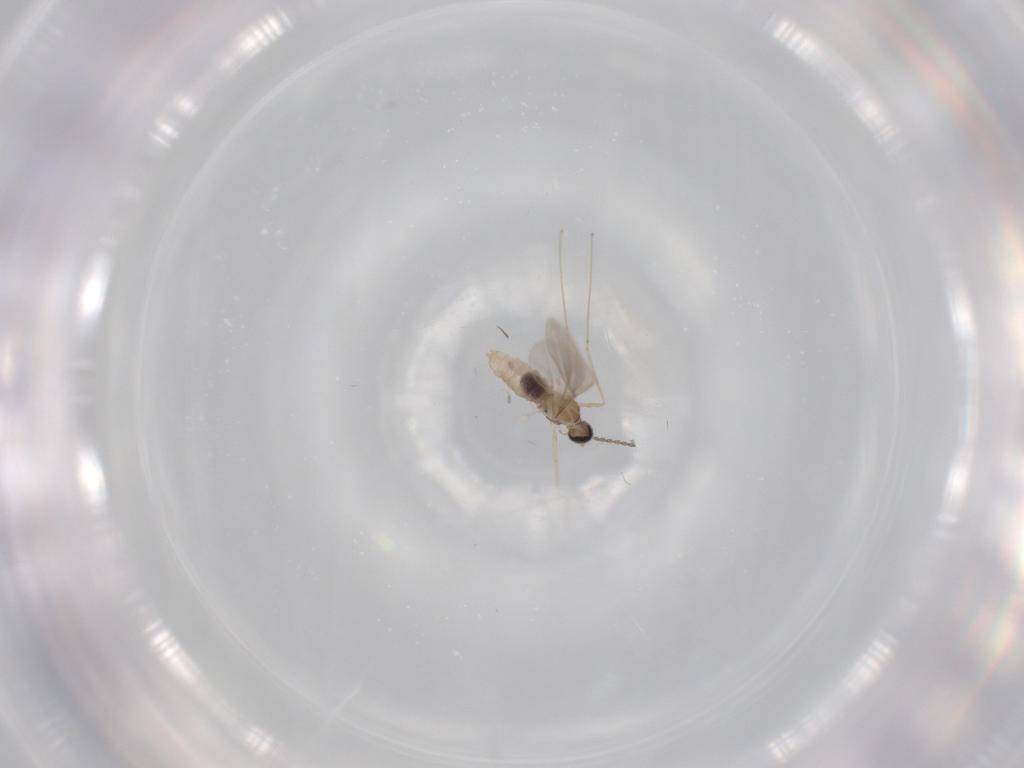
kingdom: Animalia
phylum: Arthropoda
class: Insecta
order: Diptera
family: Cecidomyiidae
